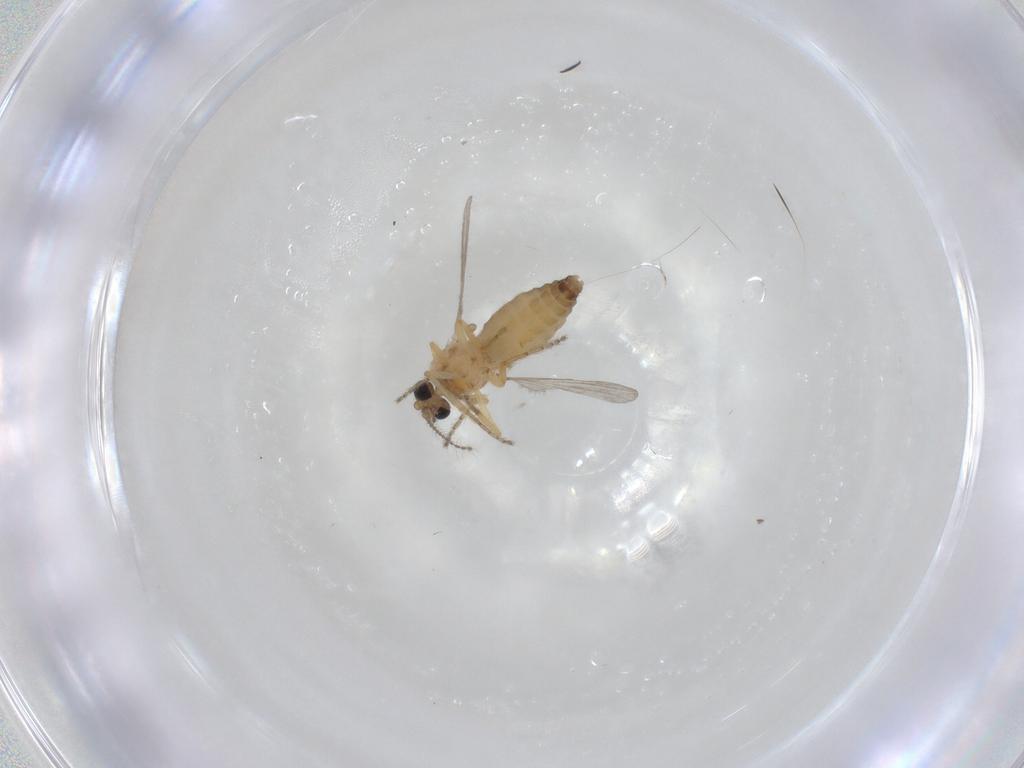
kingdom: Animalia
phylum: Arthropoda
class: Insecta
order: Diptera
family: Ceratopogonidae
